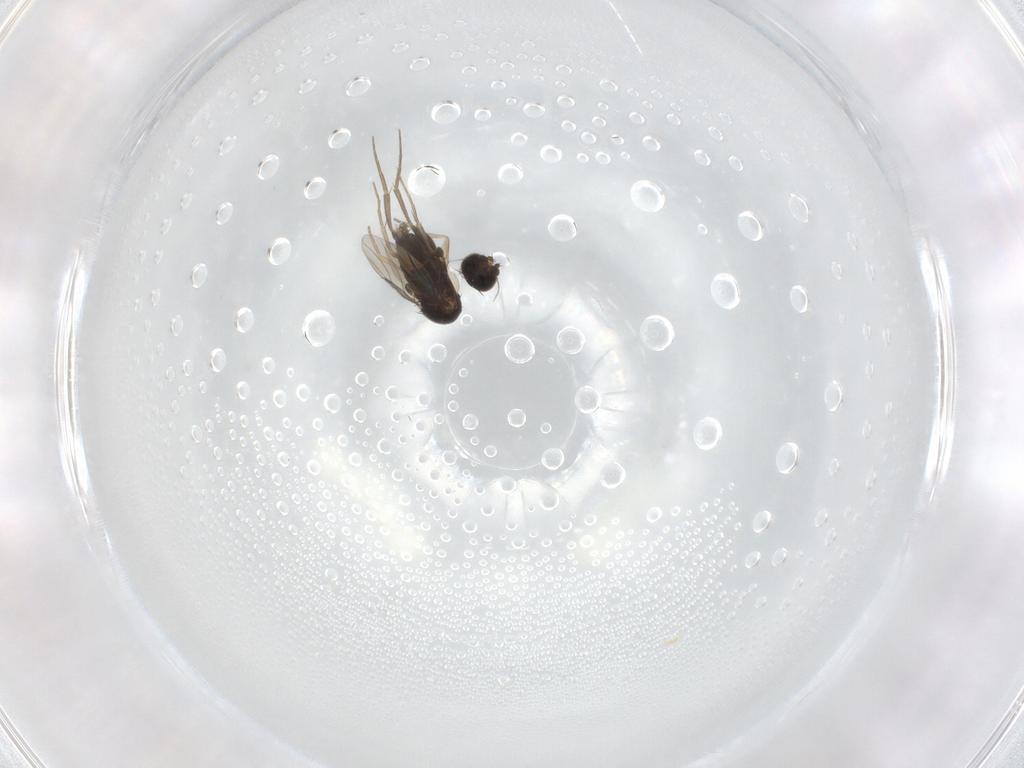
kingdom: Animalia
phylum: Arthropoda
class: Insecta
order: Diptera
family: Phoridae
